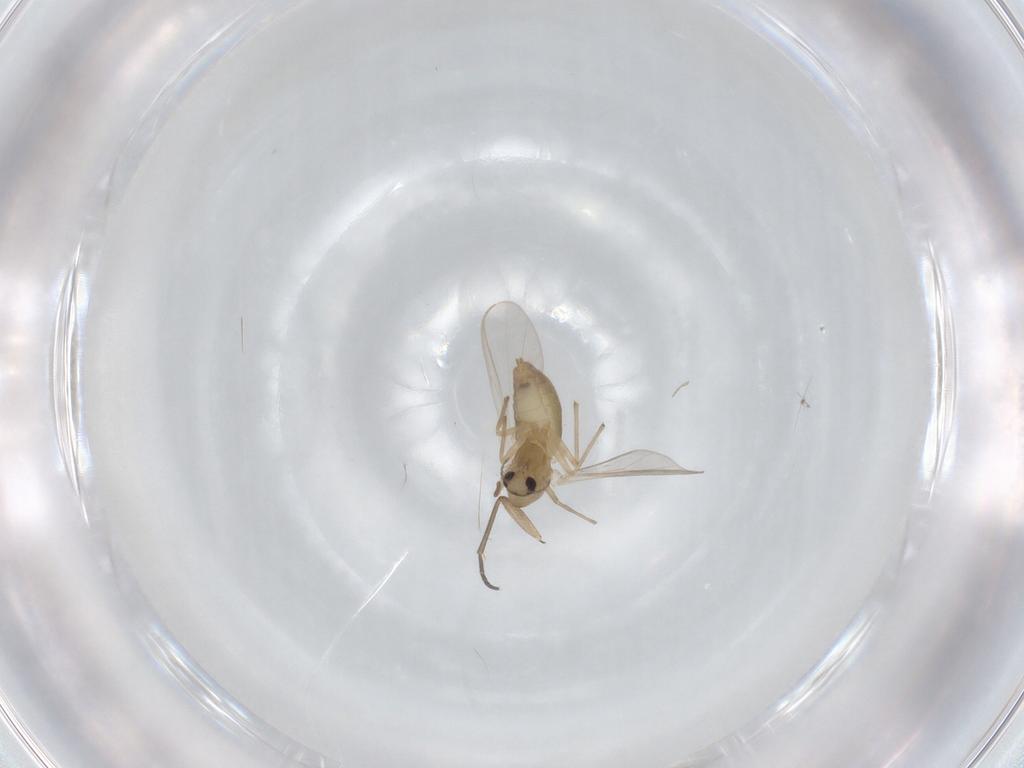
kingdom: Animalia
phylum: Arthropoda
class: Insecta
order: Diptera
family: Chironomidae
